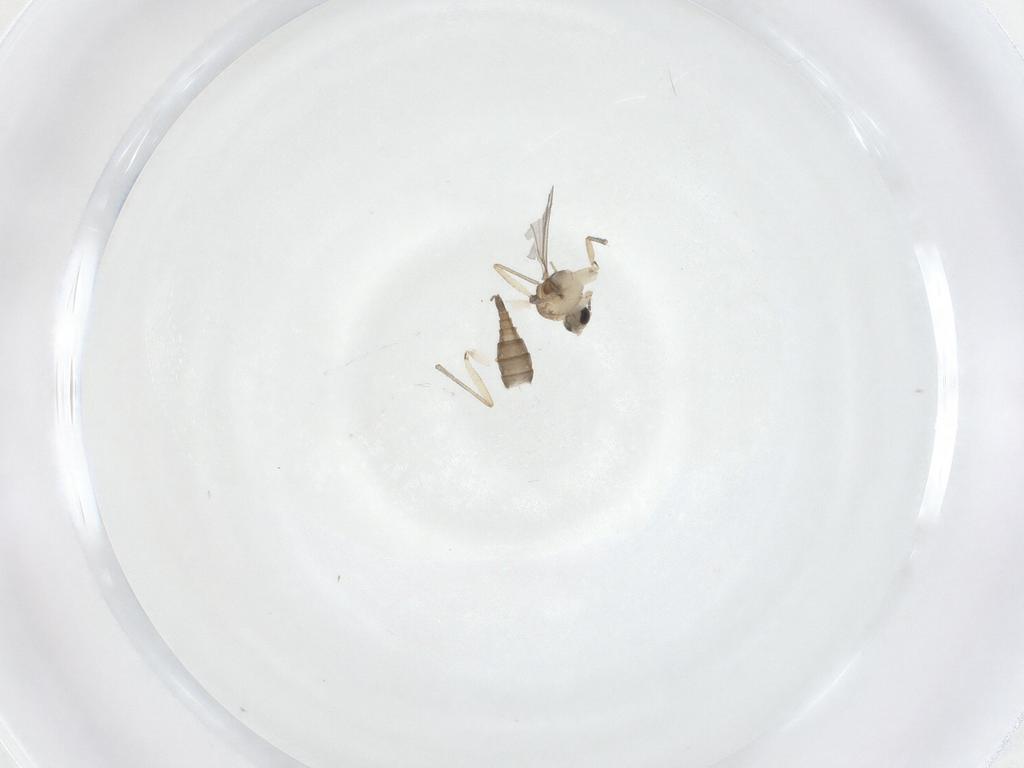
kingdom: Animalia
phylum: Arthropoda
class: Insecta
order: Diptera
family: Sciaridae
